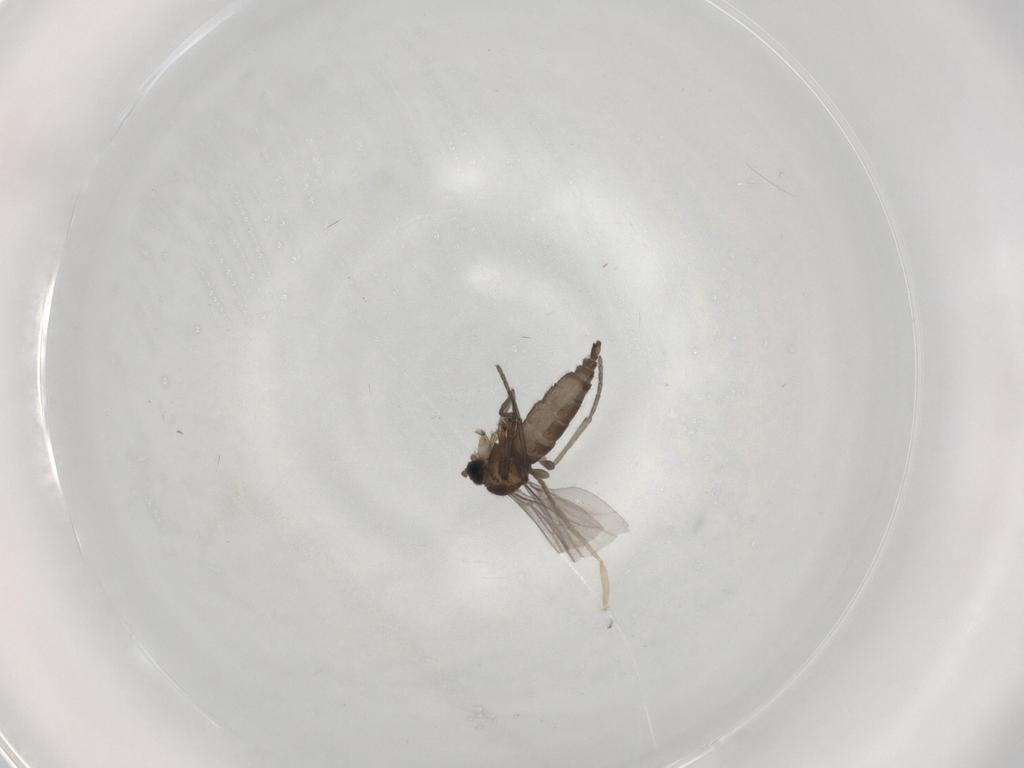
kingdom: Animalia
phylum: Arthropoda
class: Insecta
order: Diptera
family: Sciaridae
